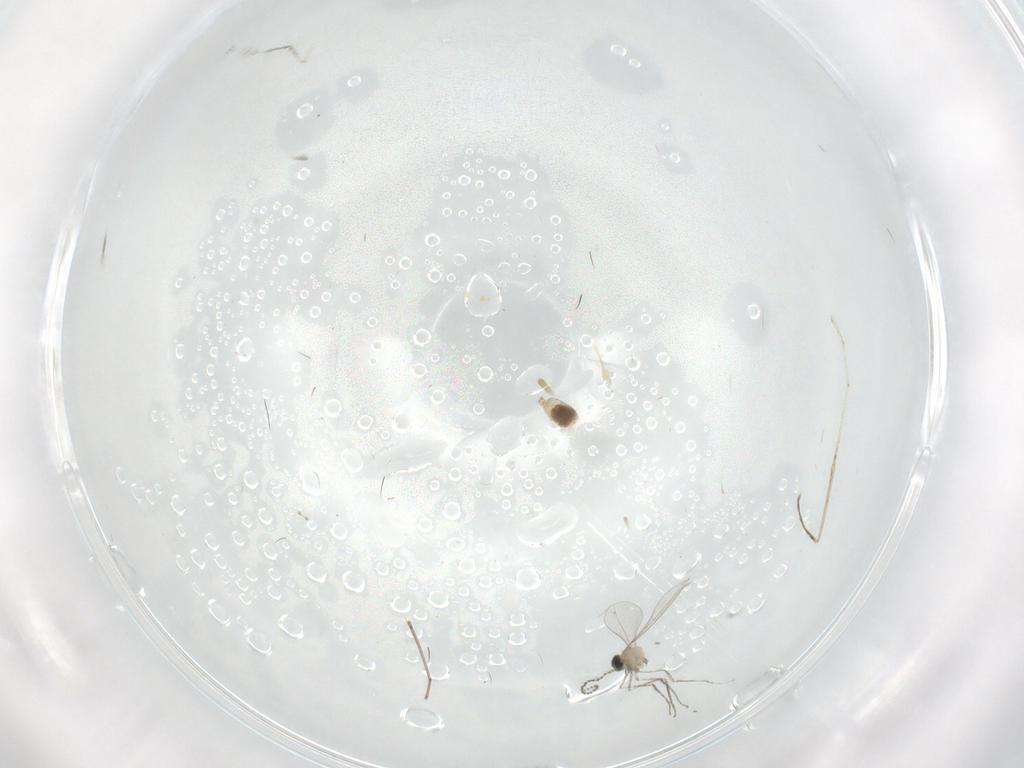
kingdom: Animalia
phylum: Arthropoda
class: Insecta
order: Diptera
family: Cecidomyiidae
